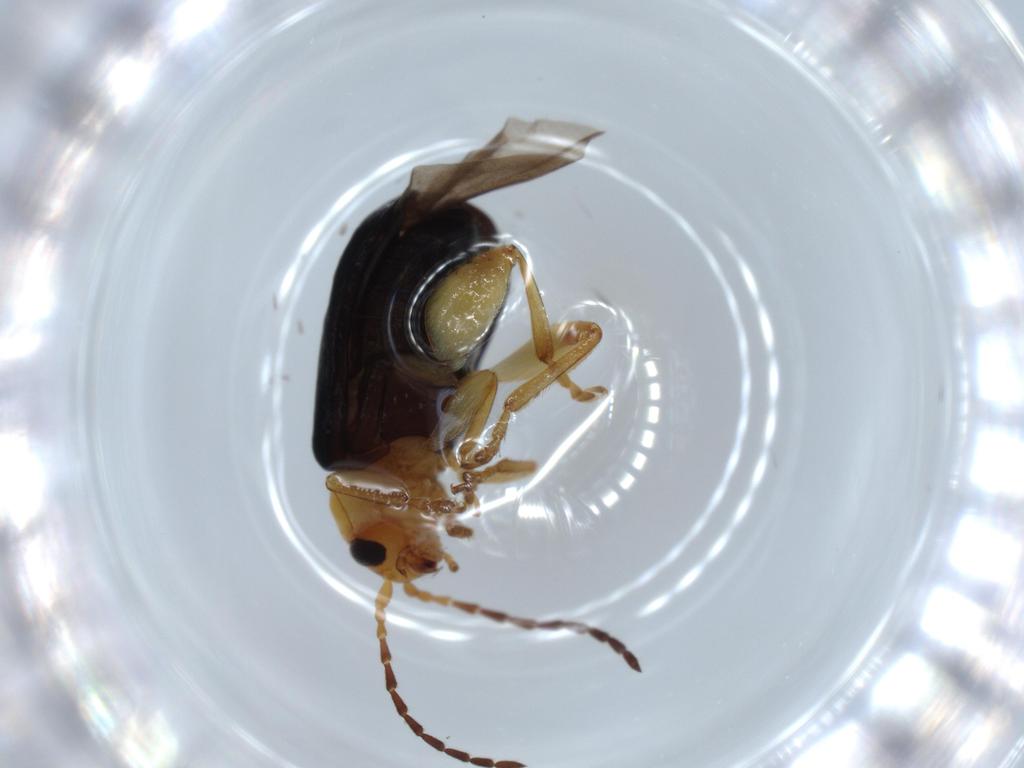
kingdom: Animalia
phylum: Arthropoda
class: Insecta
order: Coleoptera
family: Chrysomelidae
